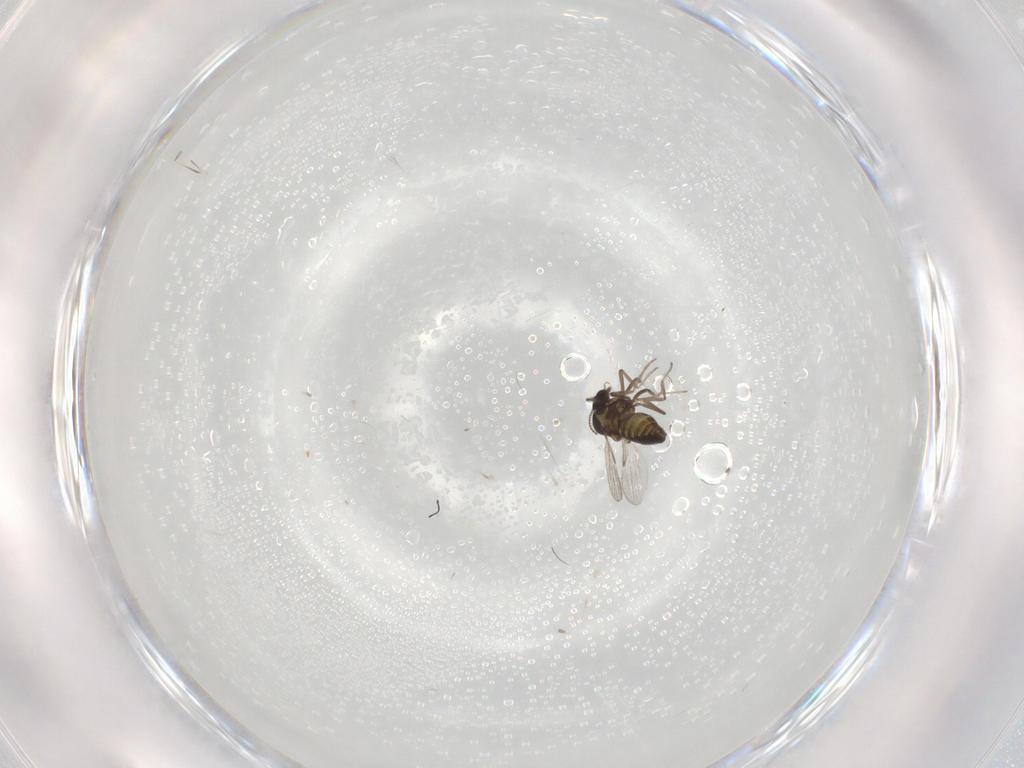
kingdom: Animalia
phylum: Arthropoda
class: Insecta
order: Diptera
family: Ceratopogonidae
